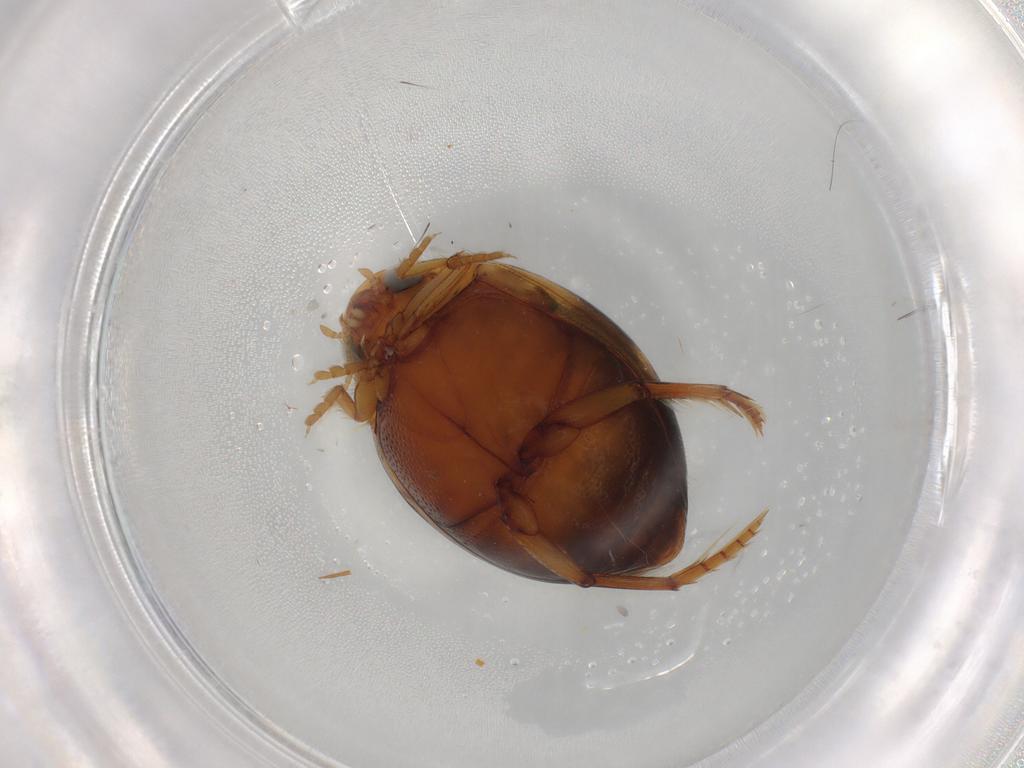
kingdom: Animalia
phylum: Arthropoda
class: Insecta
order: Coleoptera
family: Dytiscidae
